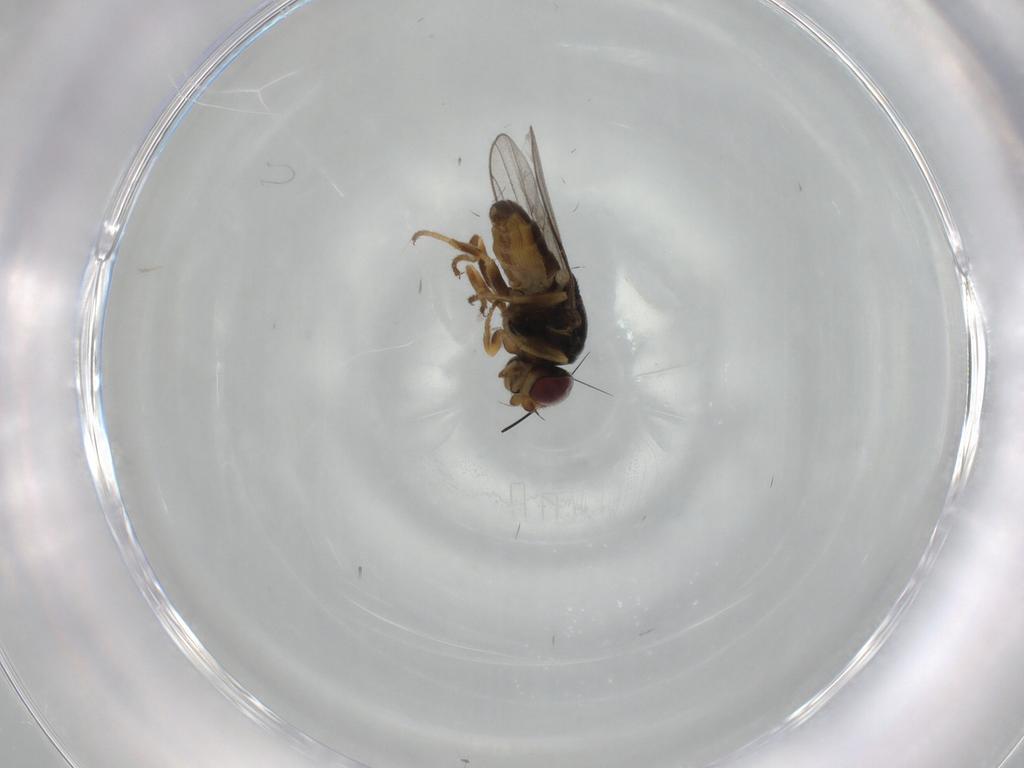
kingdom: Animalia
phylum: Arthropoda
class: Insecta
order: Diptera
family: Chloropidae
